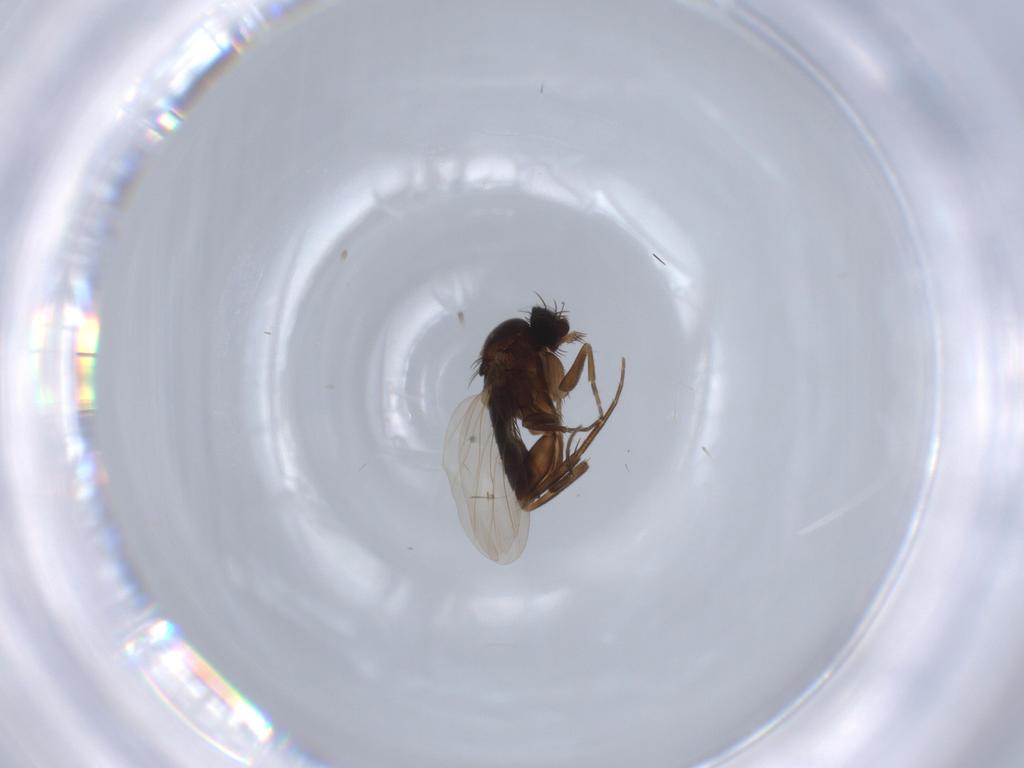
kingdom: Animalia
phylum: Arthropoda
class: Insecta
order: Diptera
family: Phoridae
